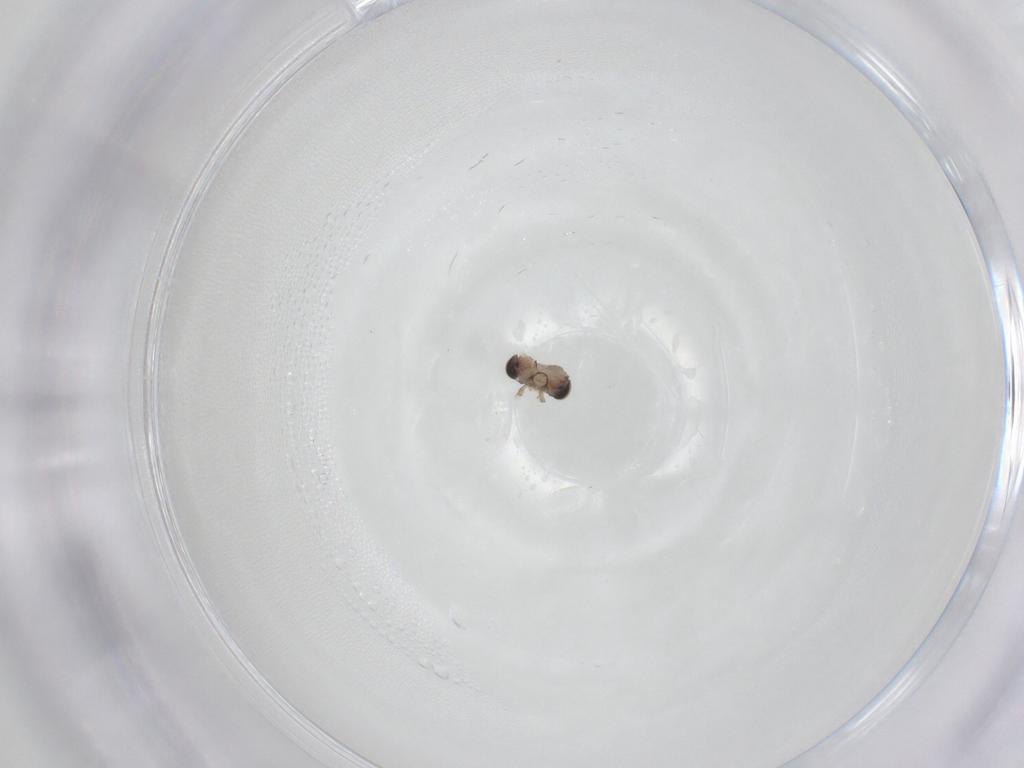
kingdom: Animalia
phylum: Arthropoda
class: Insecta
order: Lepidoptera
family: Elachistidae
